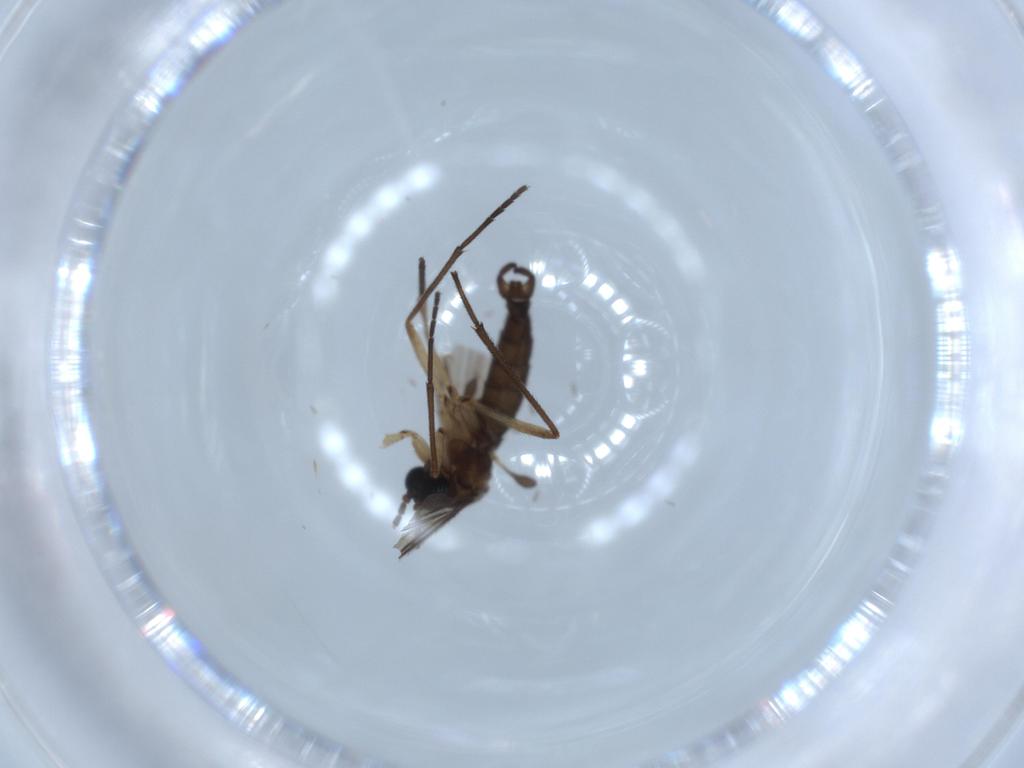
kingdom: Animalia
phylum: Arthropoda
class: Insecta
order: Diptera
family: Sciaridae
